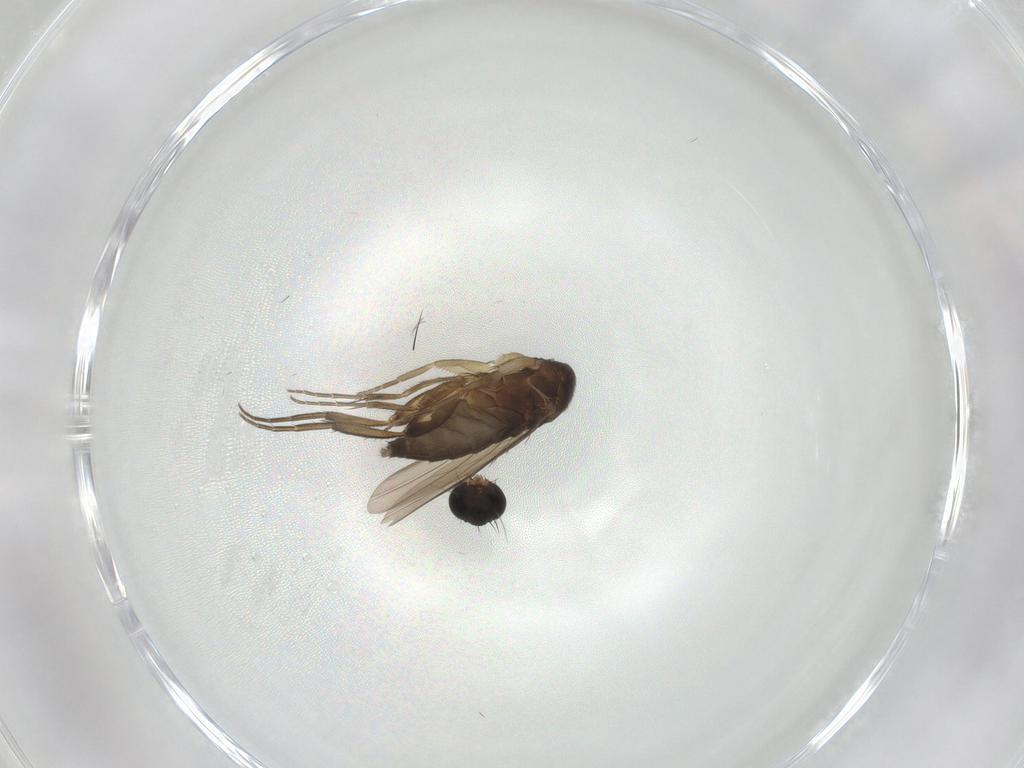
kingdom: Animalia
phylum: Arthropoda
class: Insecta
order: Diptera
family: Phoridae
